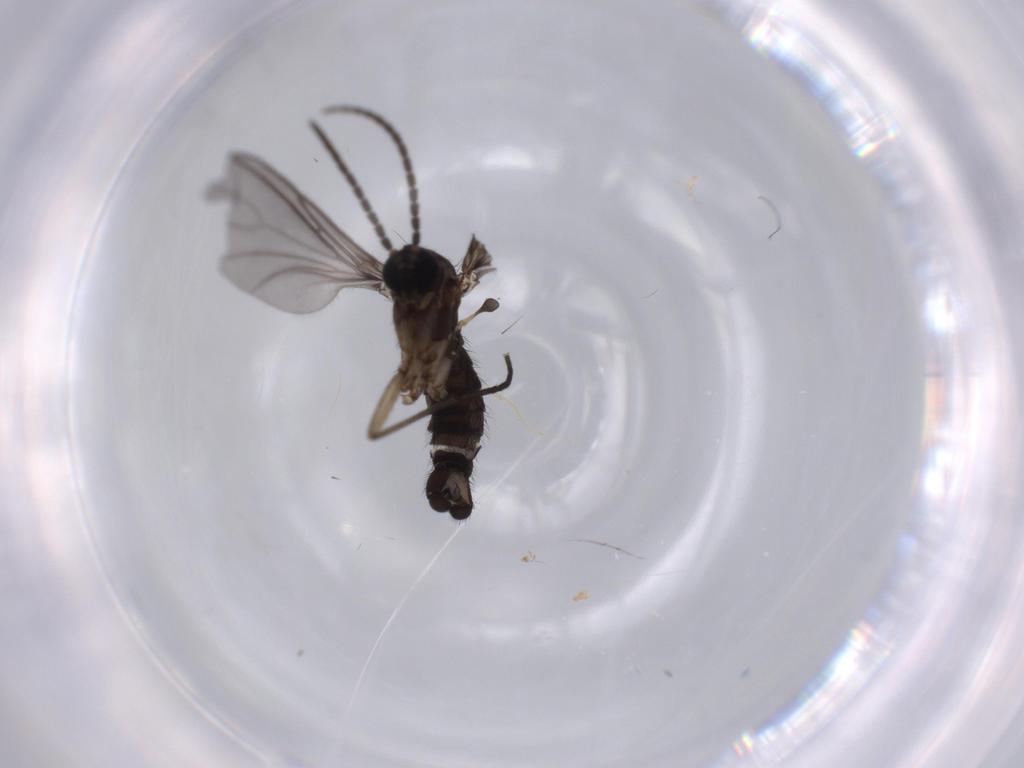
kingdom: Animalia
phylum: Arthropoda
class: Insecta
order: Diptera
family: Sciaridae
